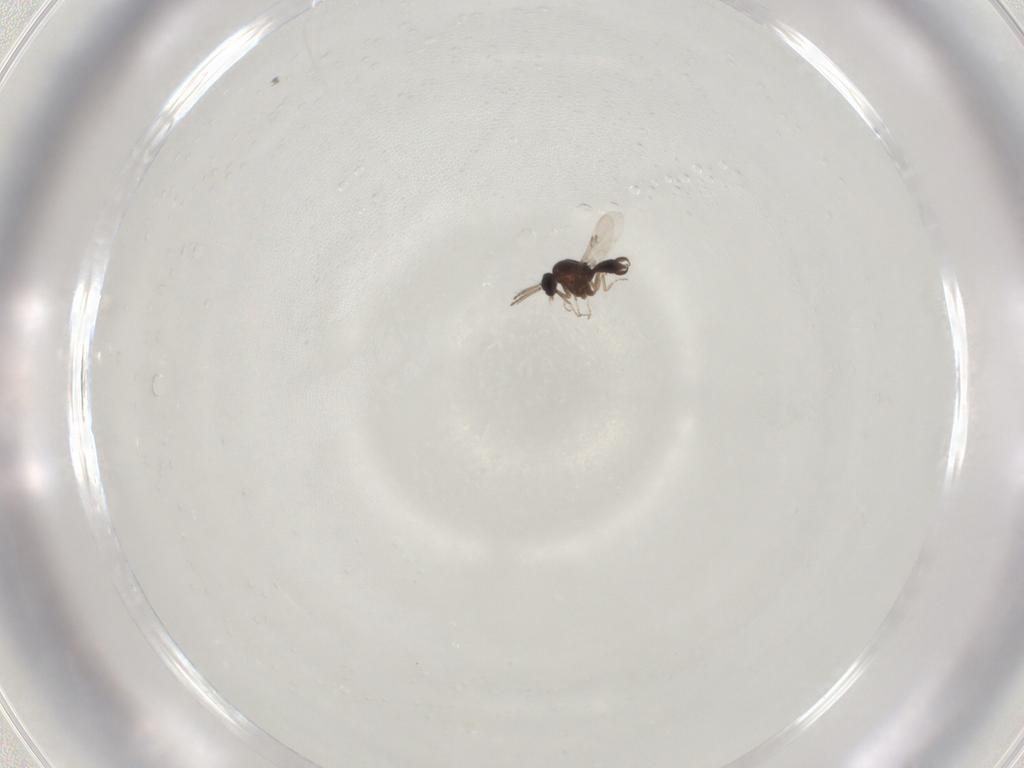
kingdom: Animalia
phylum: Arthropoda
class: Insecta
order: Diptera
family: Ceratopogonidae
